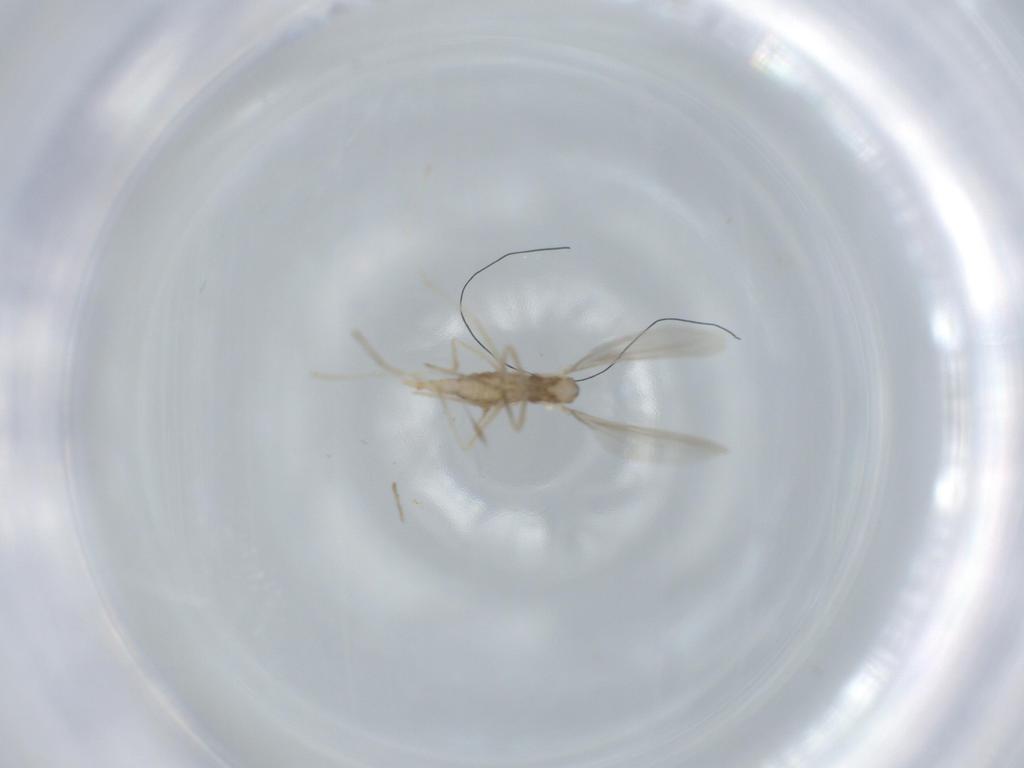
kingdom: Animalia
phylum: Arthropoda
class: Insecta
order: Diptera
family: Cecidomyiidae
